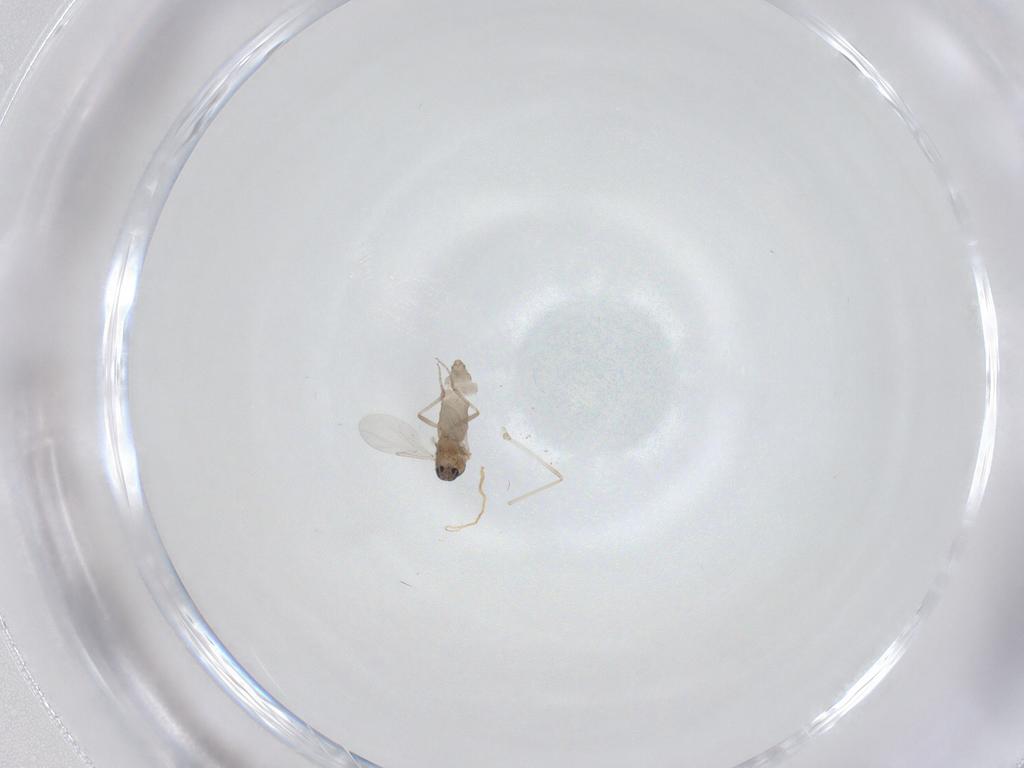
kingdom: Animalia
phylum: Arthropoda
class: Insecta
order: Diptera
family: Ceratopogonidae
